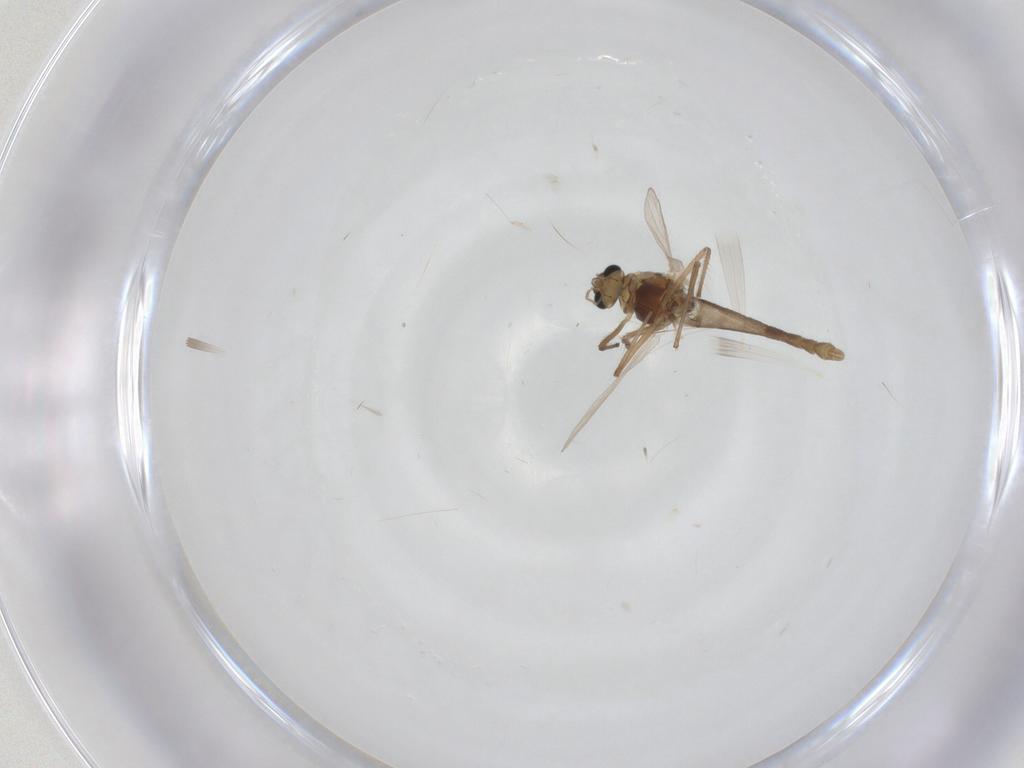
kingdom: Animalia
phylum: Arthropoda
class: Insecta
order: Diptera
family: Chironomidae
